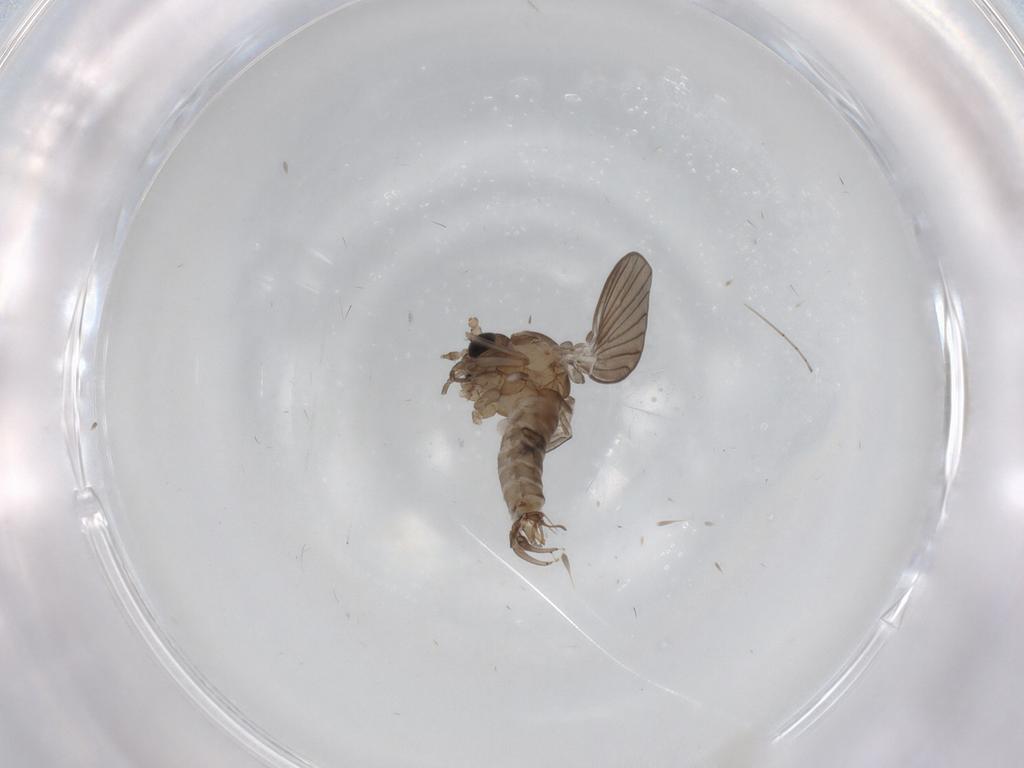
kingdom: Animalia
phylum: Arthropoda
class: Insecta
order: Diptera
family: Psychodidae
